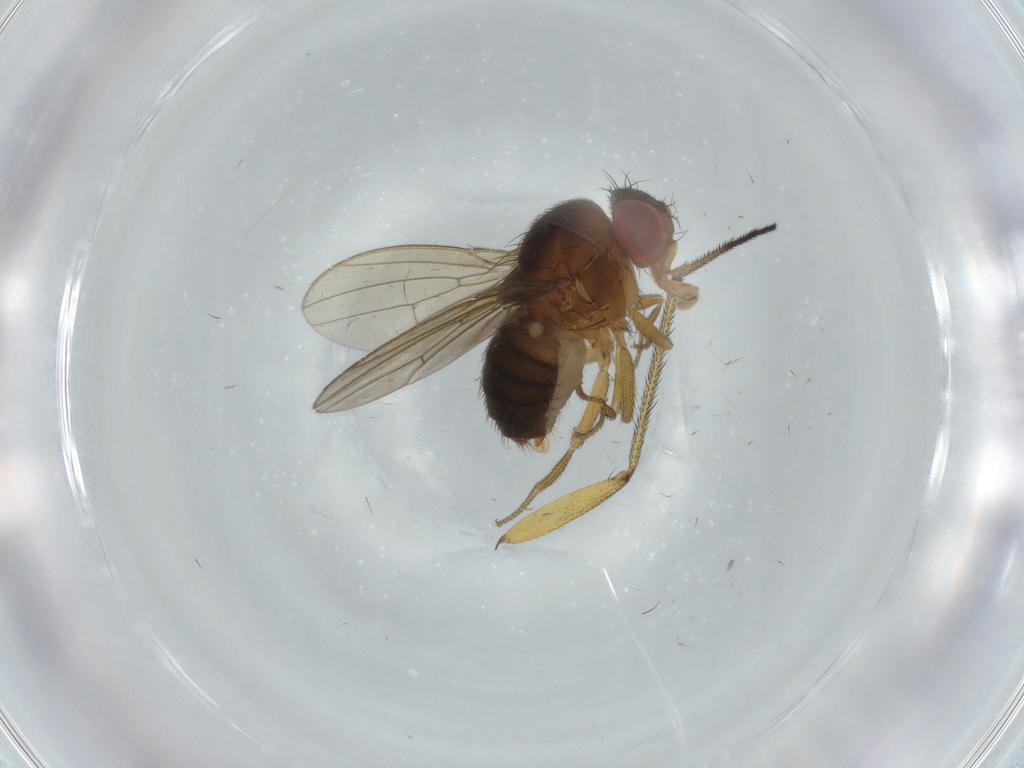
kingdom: Animalia
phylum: Arthropoda
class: Insecta
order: Diptera
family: Drosophilidae
